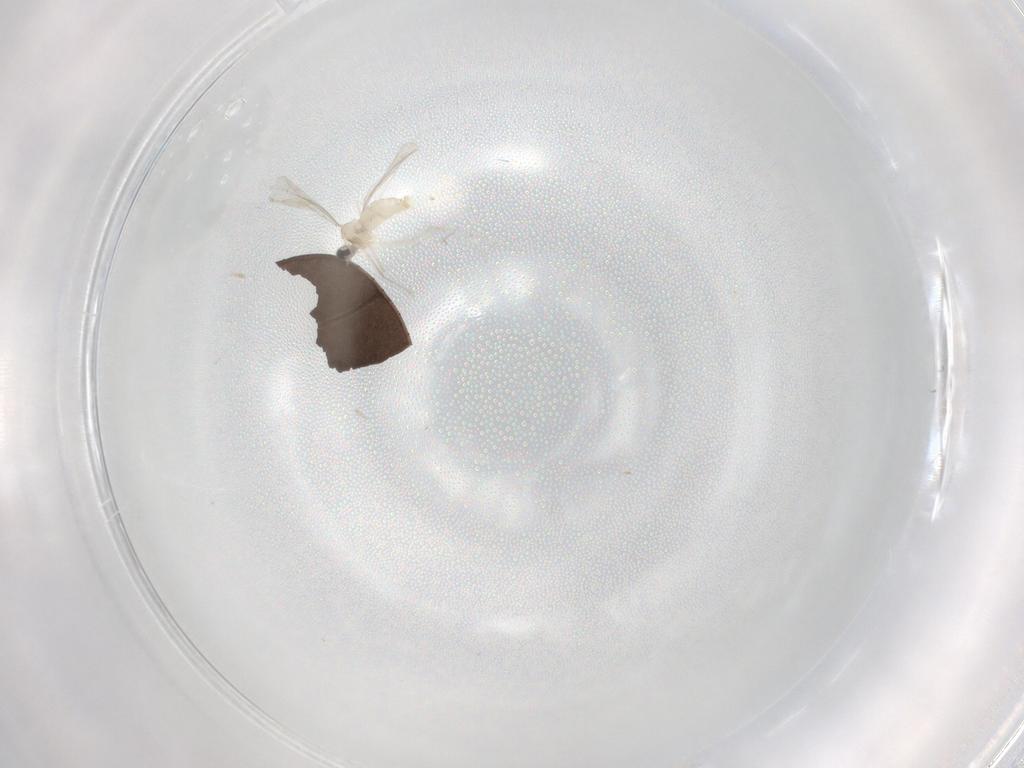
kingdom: Animalia
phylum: Arthropoda
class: Insecta
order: Diptera
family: Cecidomyiidae
